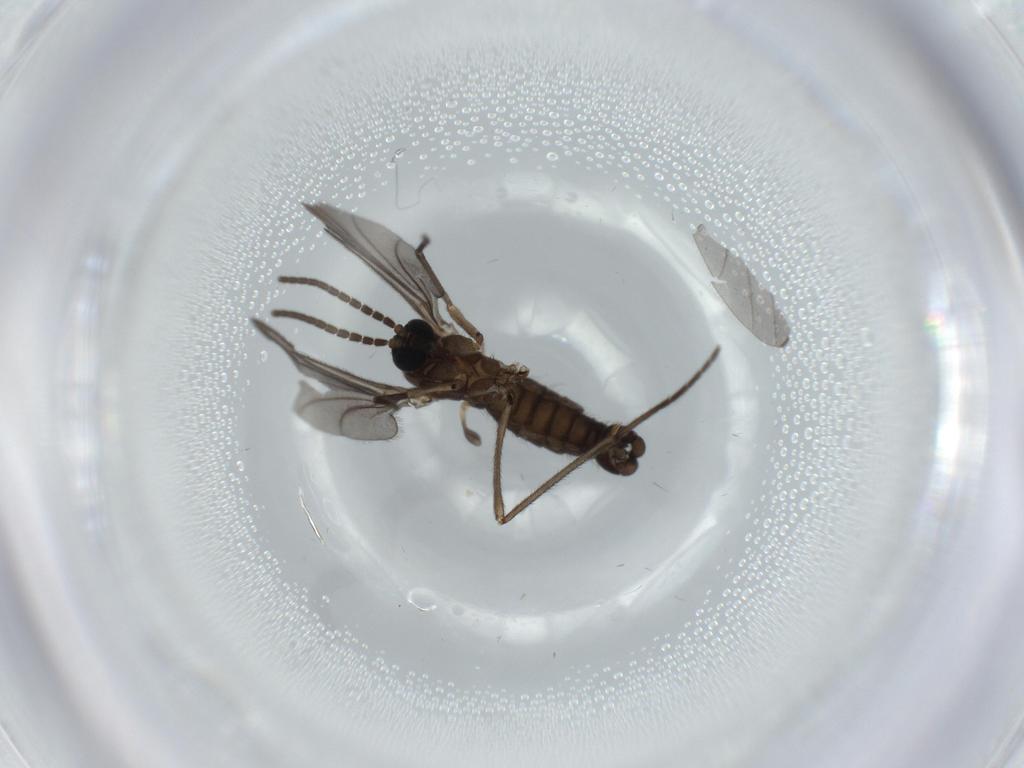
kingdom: Animalia
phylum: Arthropoda
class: Insecta
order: Diptera
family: Sciaridae
